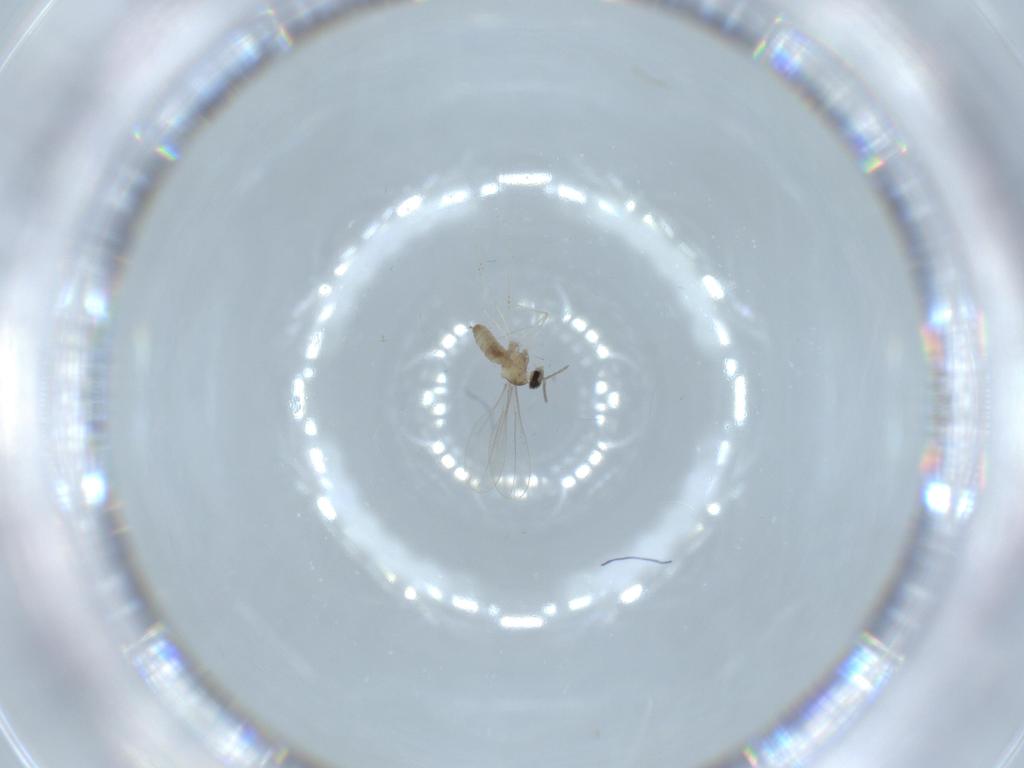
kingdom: Animalia
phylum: Arthropoda
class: Insecta
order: Diptera
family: Cecidomyiidae
